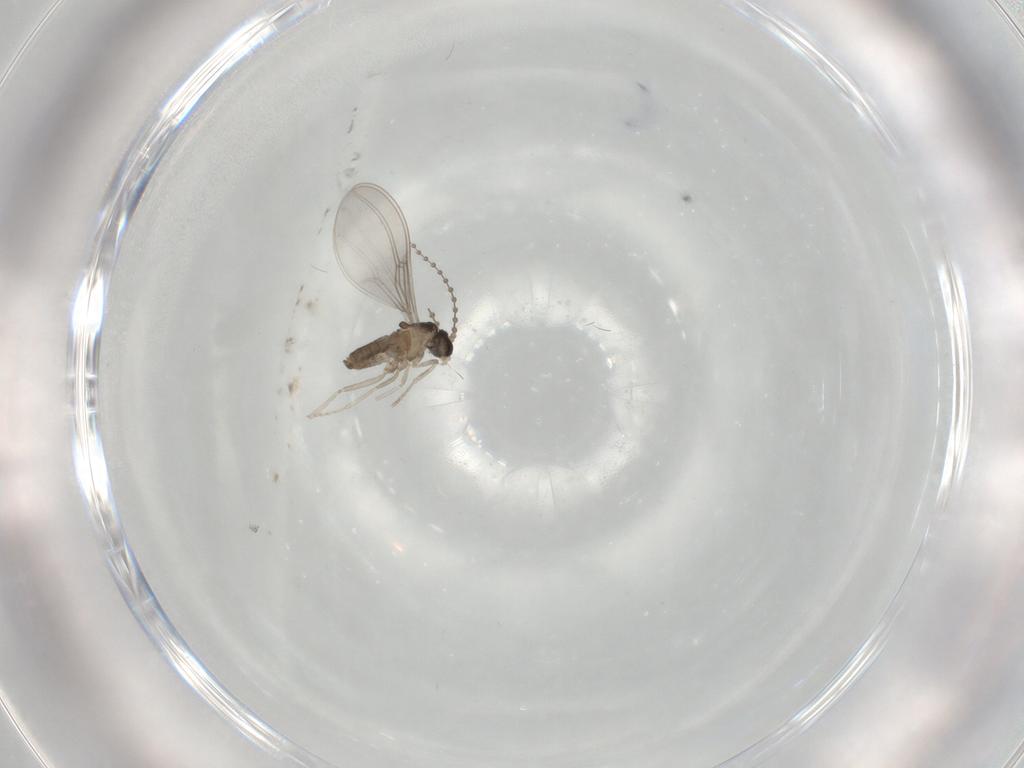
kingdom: Animalia
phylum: Arthropoda
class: Insecta
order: Diptera
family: Cecidomyiidae
